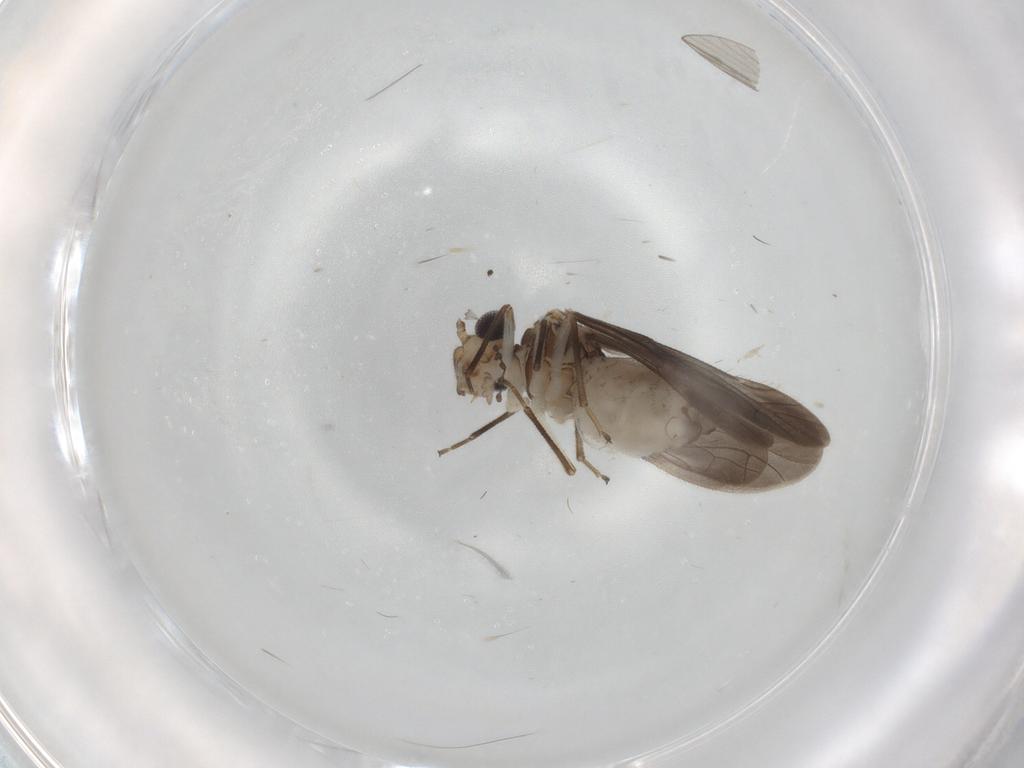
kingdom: Animalia
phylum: Arthropoda
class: Insecta
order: Psocodea
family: Caeciliusidae
